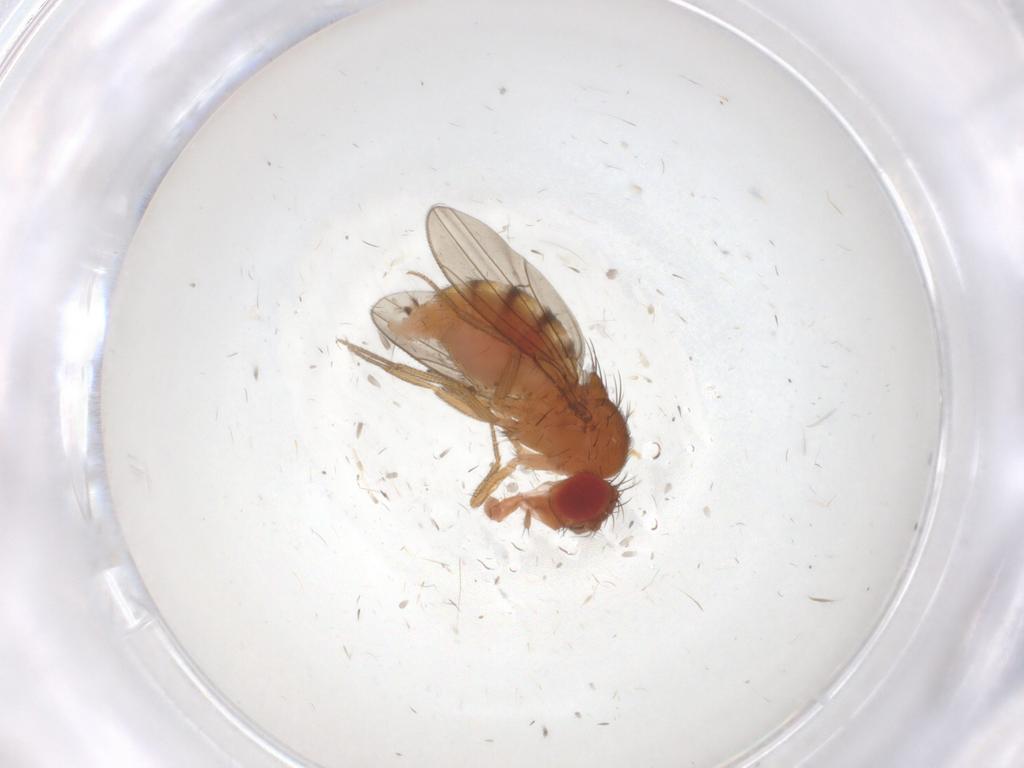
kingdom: Animalia
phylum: Arthropoda
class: Insecta
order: Diptera
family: Drosophilidae
